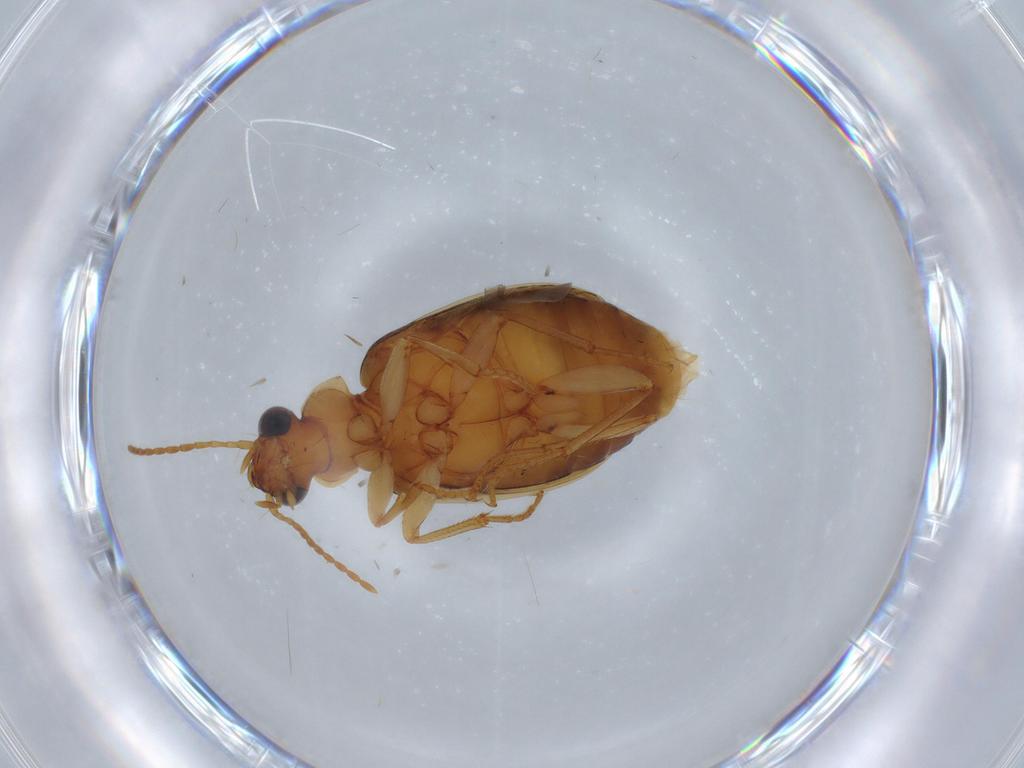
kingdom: Animalia
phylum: Arthropoda
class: Insecta
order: Coleoptera
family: Carabidae
